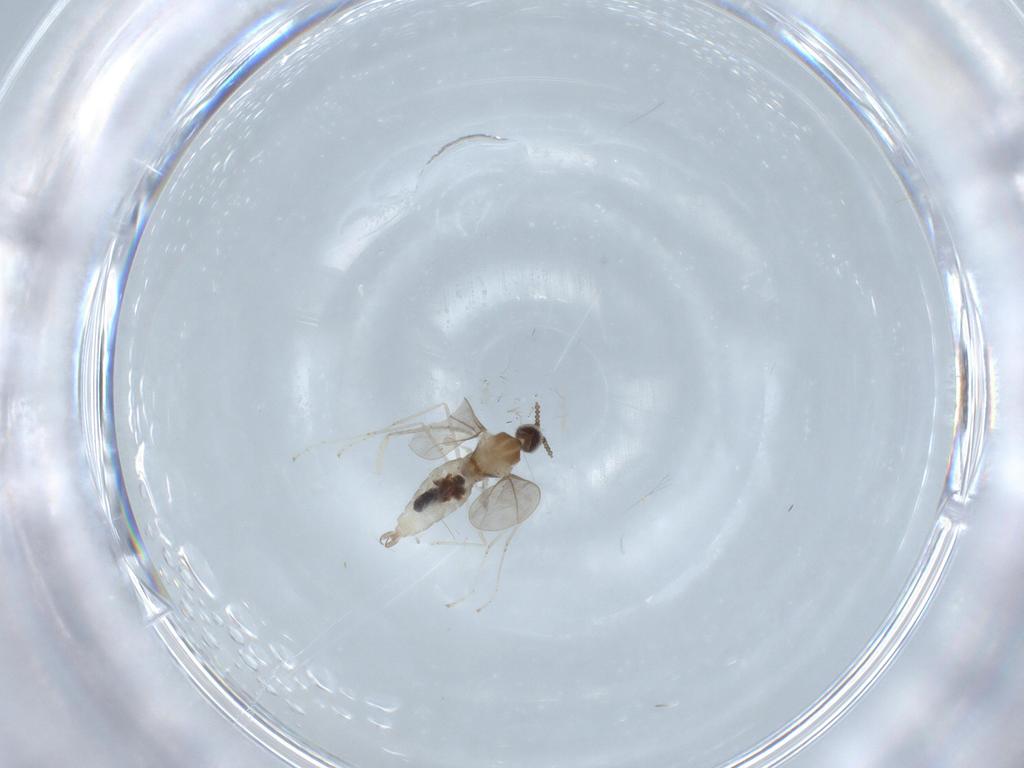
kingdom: Animalia
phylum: Arthropoda
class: Insecta
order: Diptera
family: Cecidomyiidae
